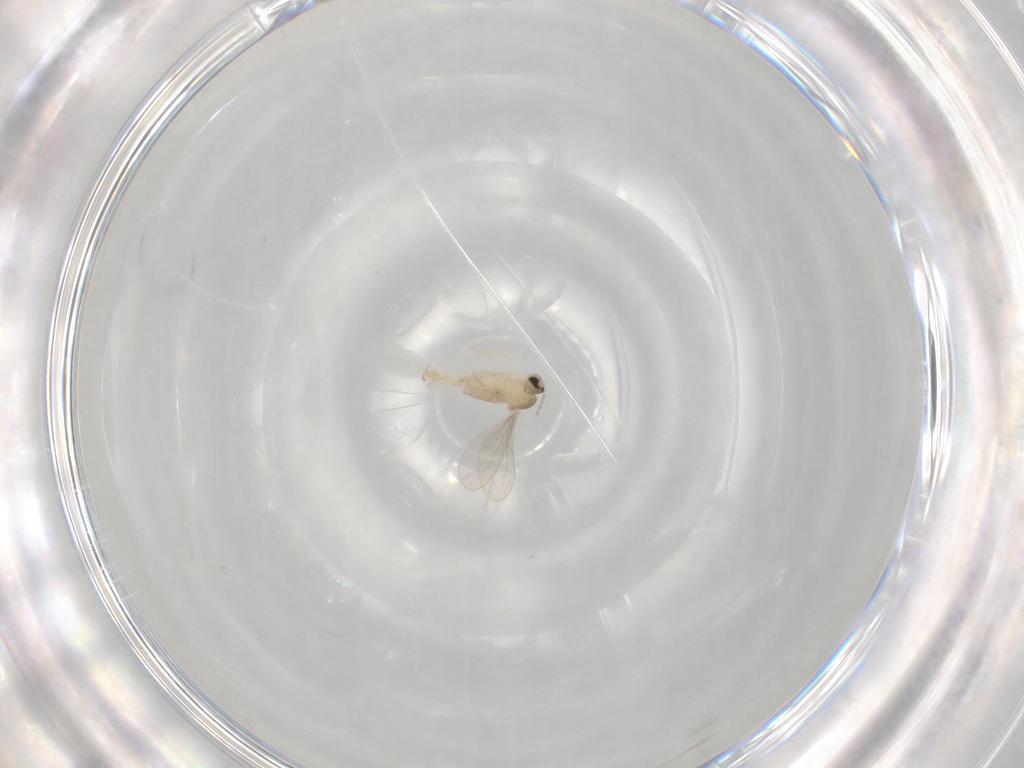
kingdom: Animalia
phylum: Arthropoda
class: Insecta
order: Diptera
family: Cecidomyiidae
